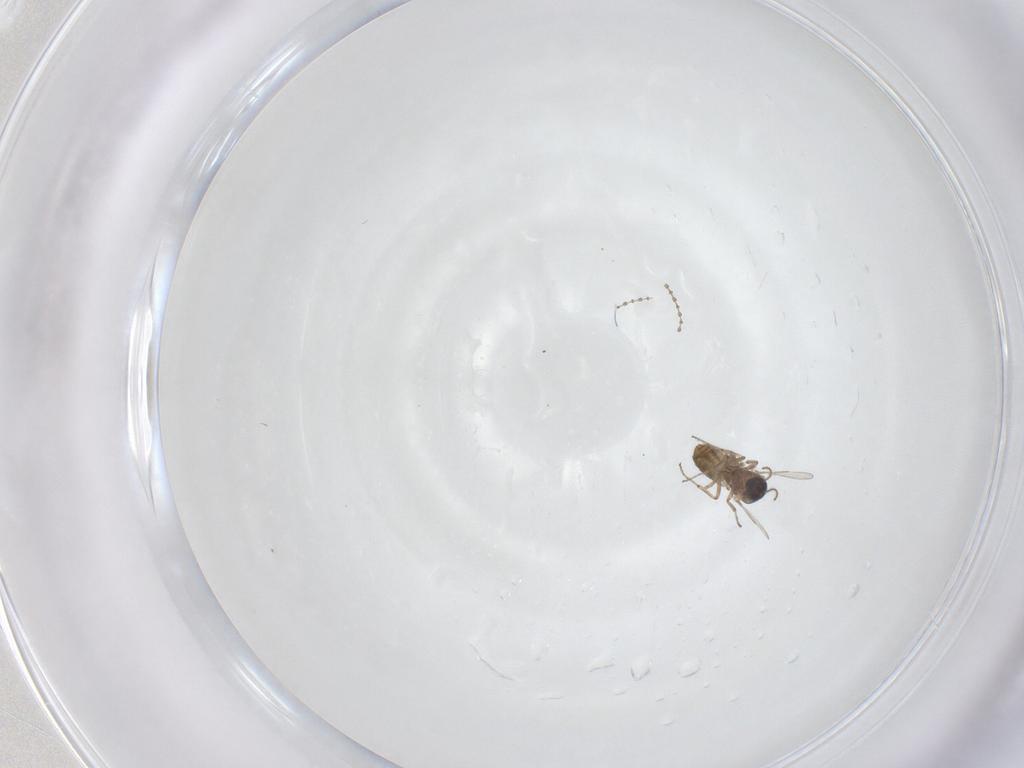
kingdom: Animalia
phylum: Arthropoda
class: Insecta
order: Diptera
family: Ceratopogonidae
